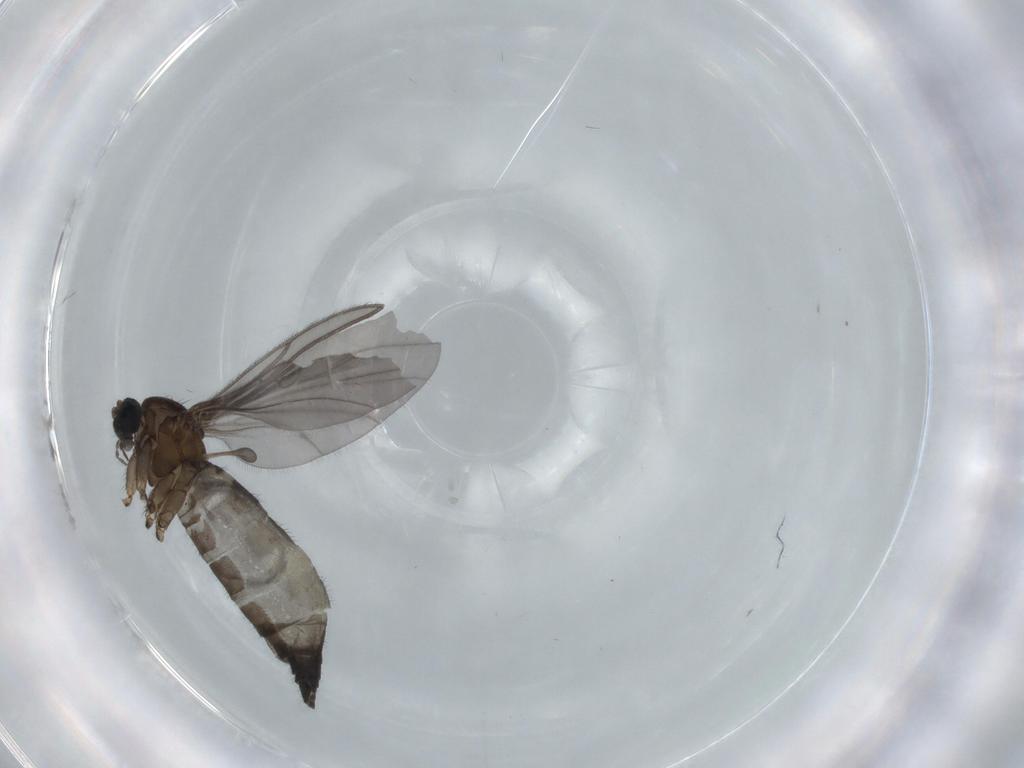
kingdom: Animalia
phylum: Arthropoda
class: Insecta
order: Diptera
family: Sciaridae
